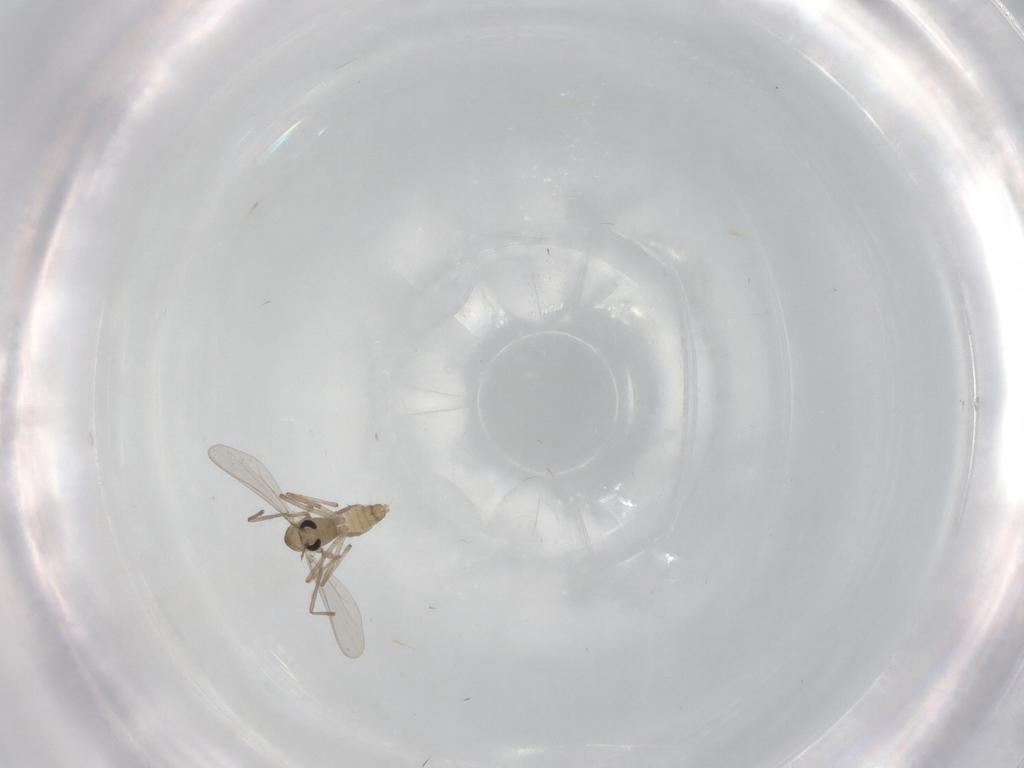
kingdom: Animalia
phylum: Arthropoda
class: Insecta
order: Diptera
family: Chironomidae
